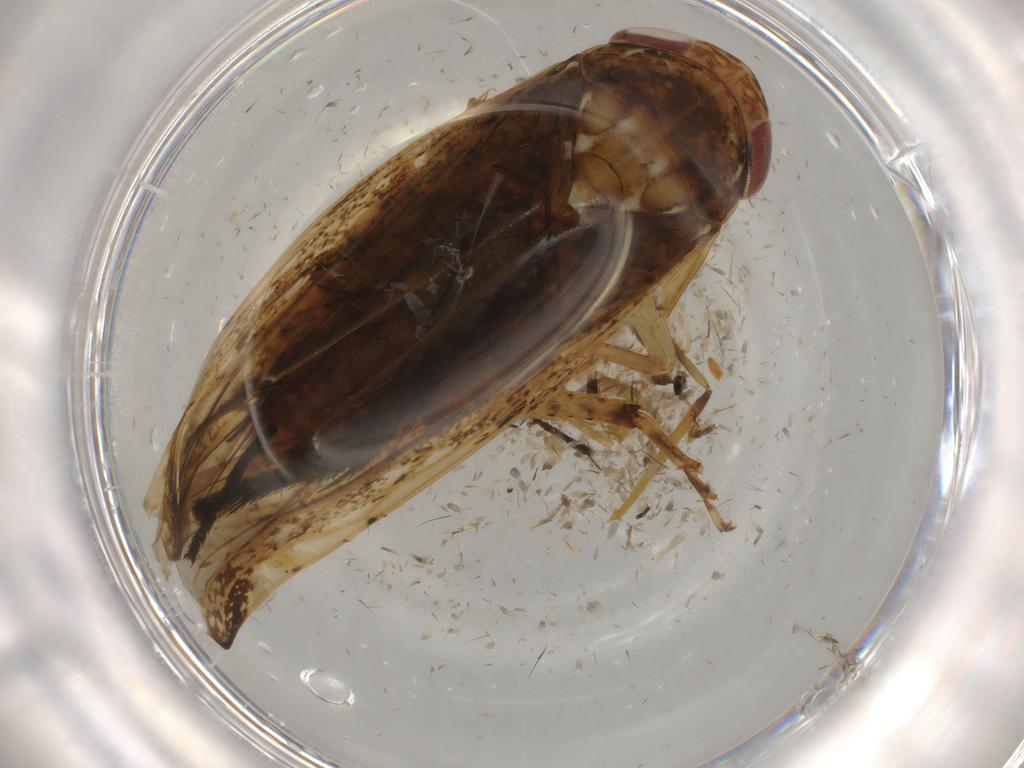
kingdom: Animalia
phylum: Arthropoda
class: Insecta
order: Hemiptera
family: Cicadellidae
